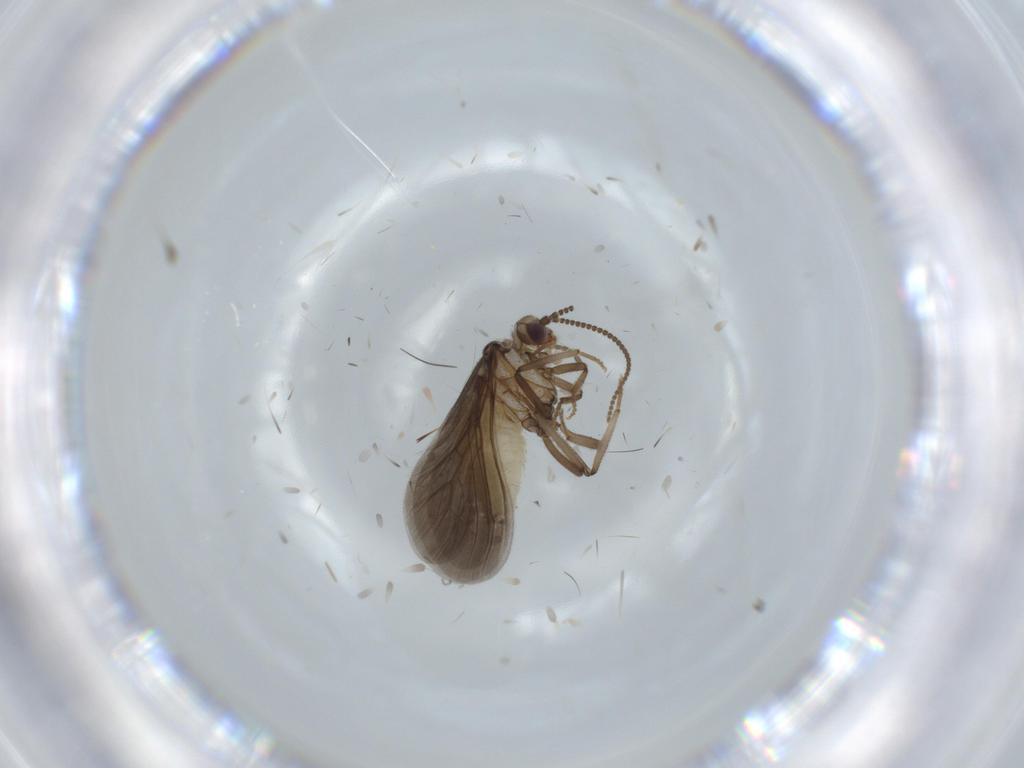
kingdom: Animalia
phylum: Arthropoda
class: Insecta
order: Neuroptera
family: Coniopterygidae
